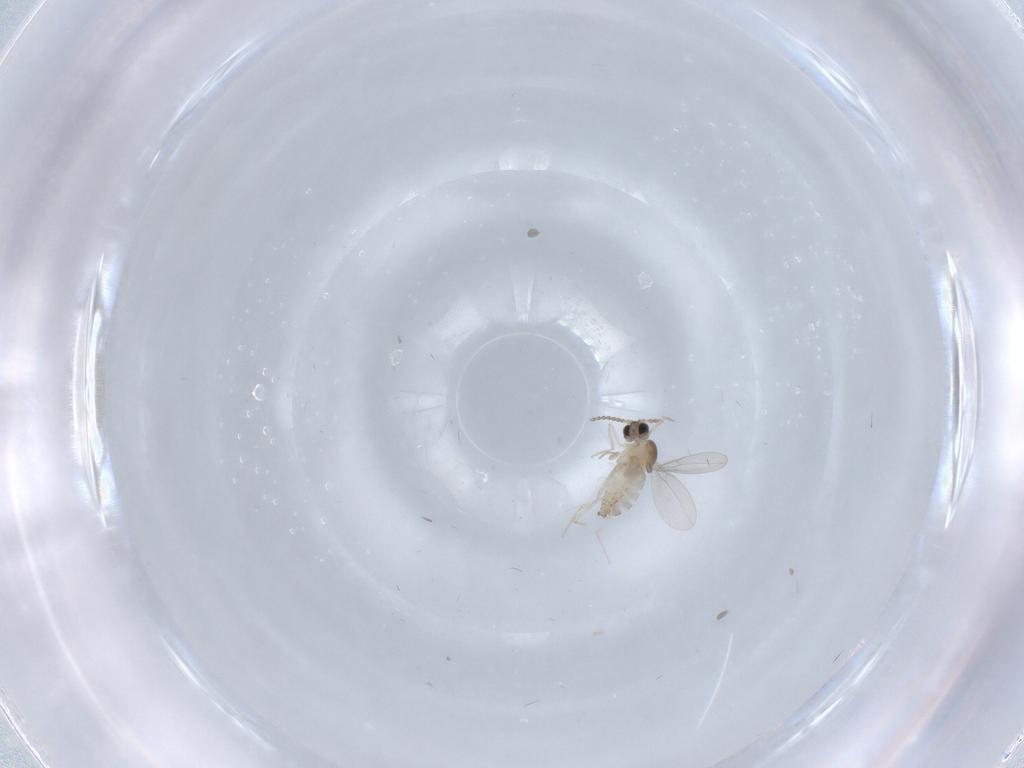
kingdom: Animalia
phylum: Arthropoda
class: Insecta
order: Diptera
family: Cecidomyiidae
